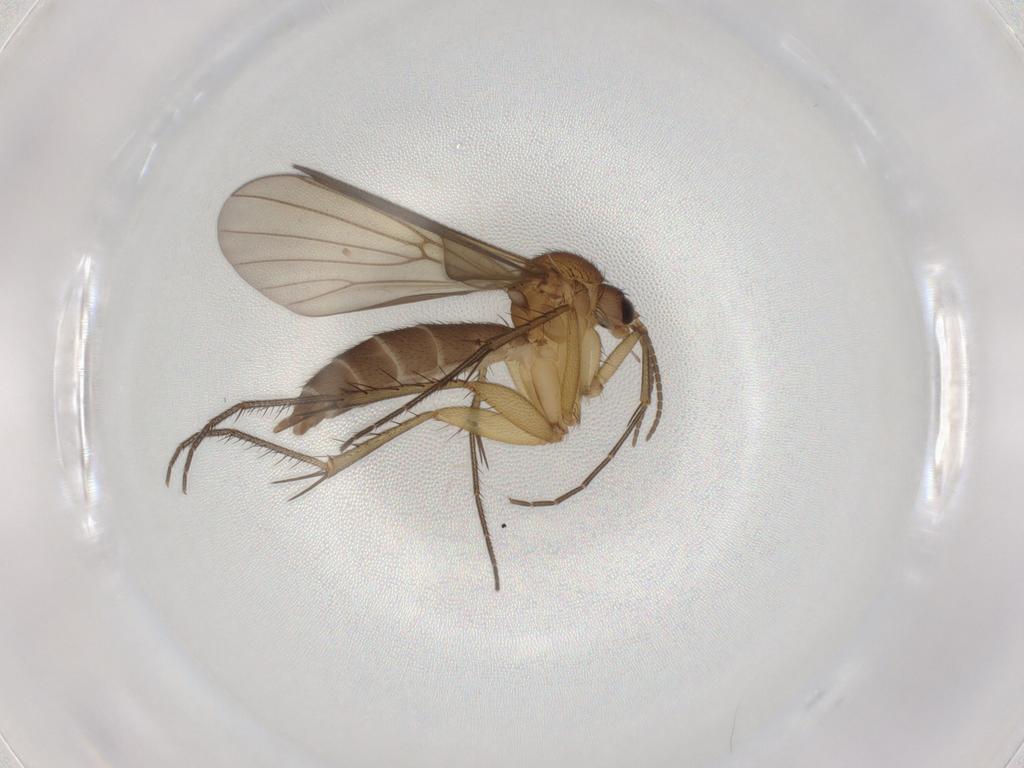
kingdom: Animalia
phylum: Arthropoda
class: Insecta
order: Diptera
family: Mycetophilidae
